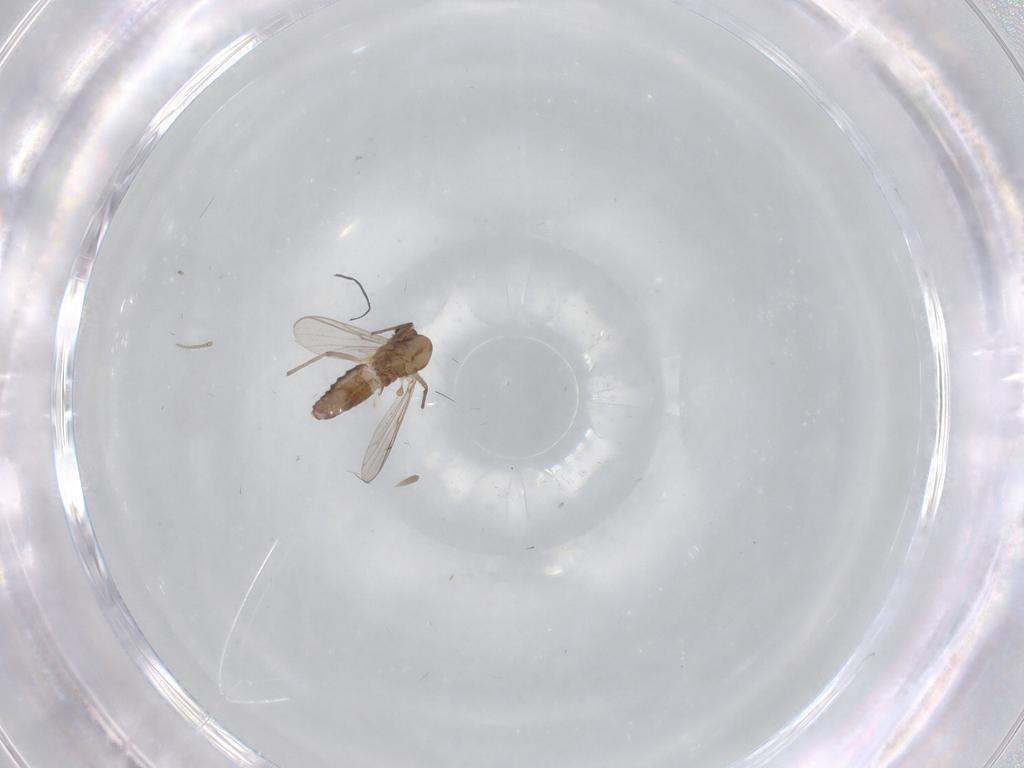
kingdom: Animalia
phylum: Arthropoda
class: Insecta
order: Diptera
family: Chironomidae
